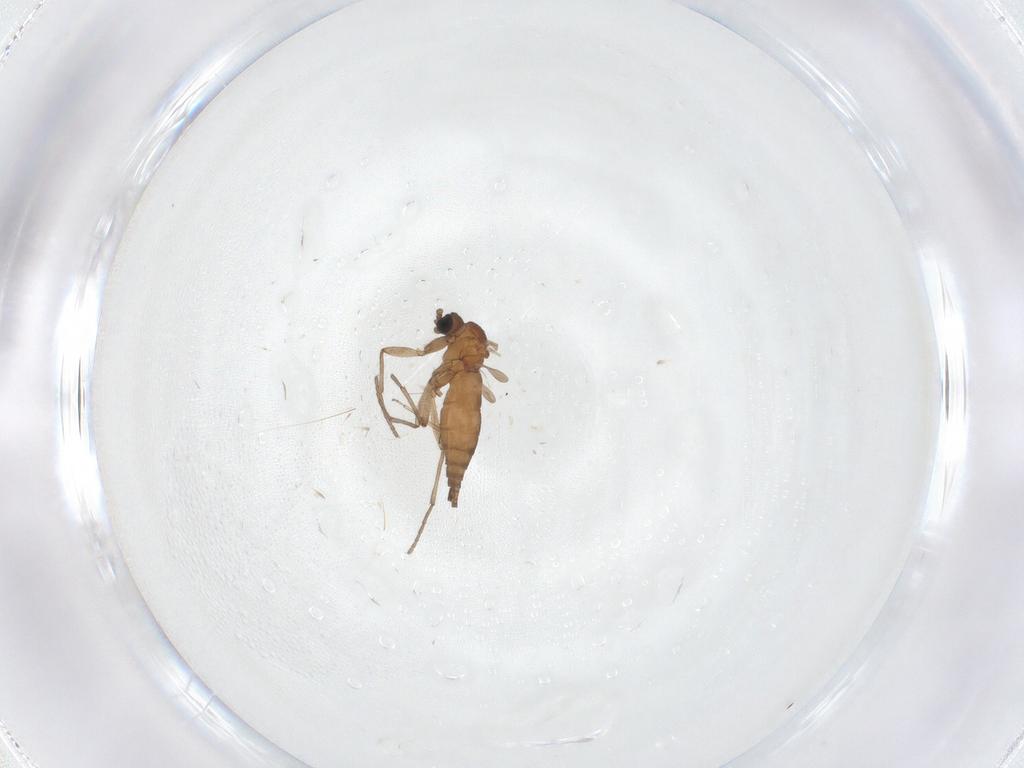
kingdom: Animalia
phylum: Arthropoda
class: Insecta
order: Diptera
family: Sciaridae
